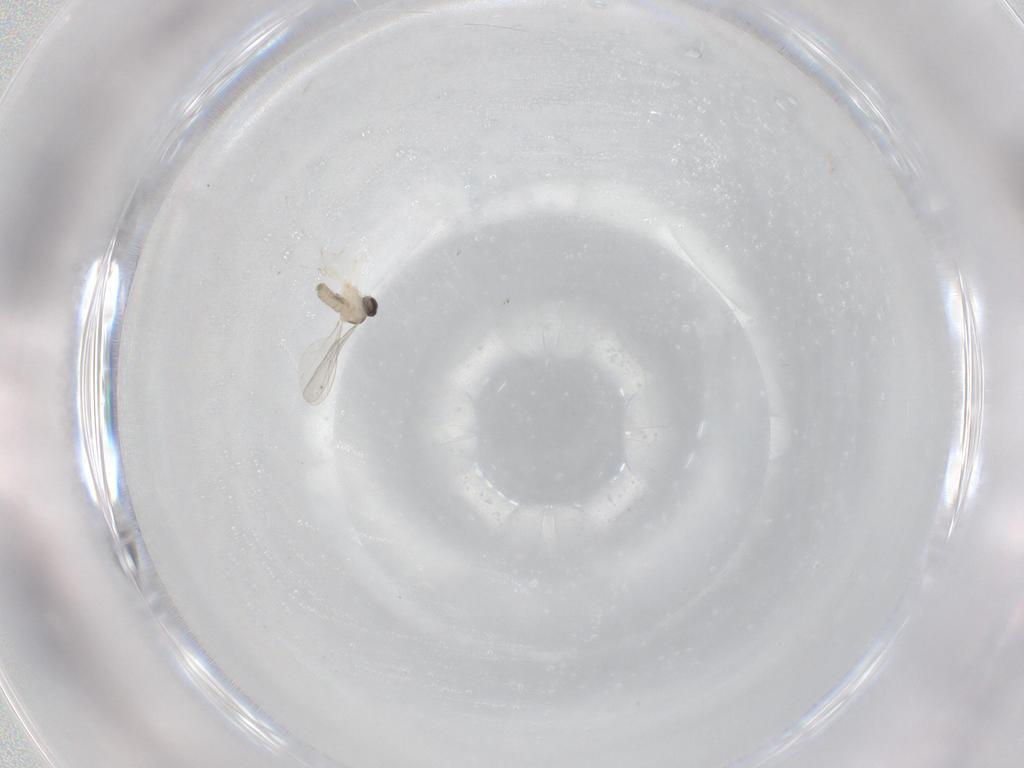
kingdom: Animalia
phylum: Arthropoda
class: Insecta
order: Diptera
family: Cecidomyiidae
